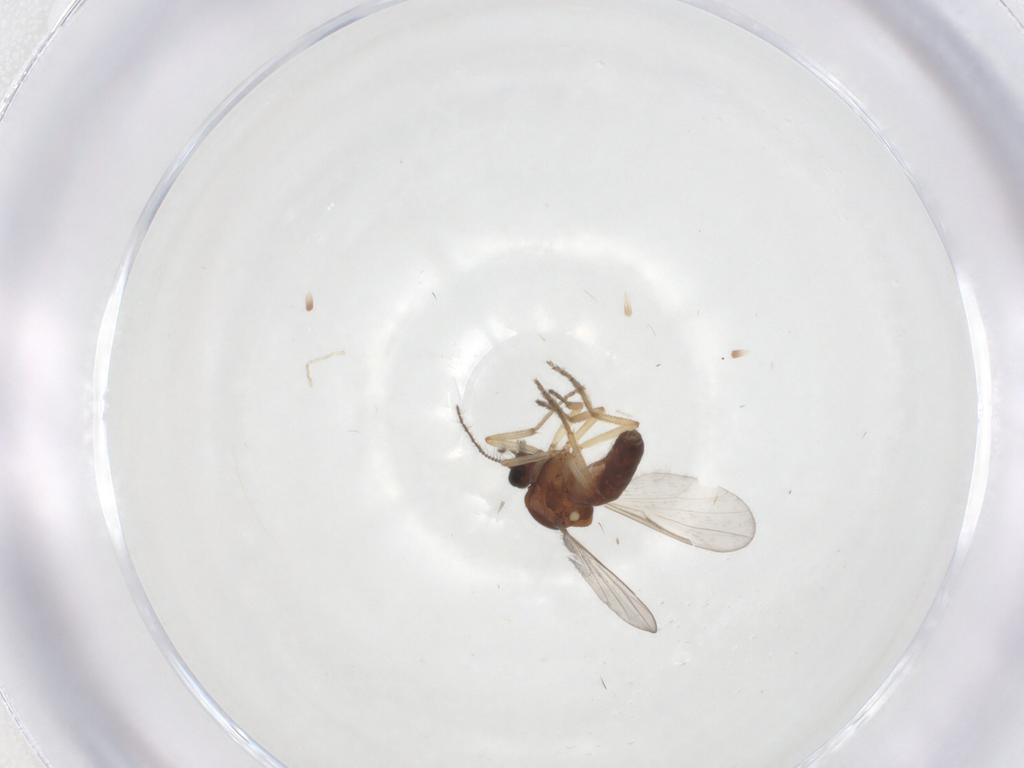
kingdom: Animalia
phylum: Arthropoda
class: Insecta
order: Diptera
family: Ceratopogonidae
